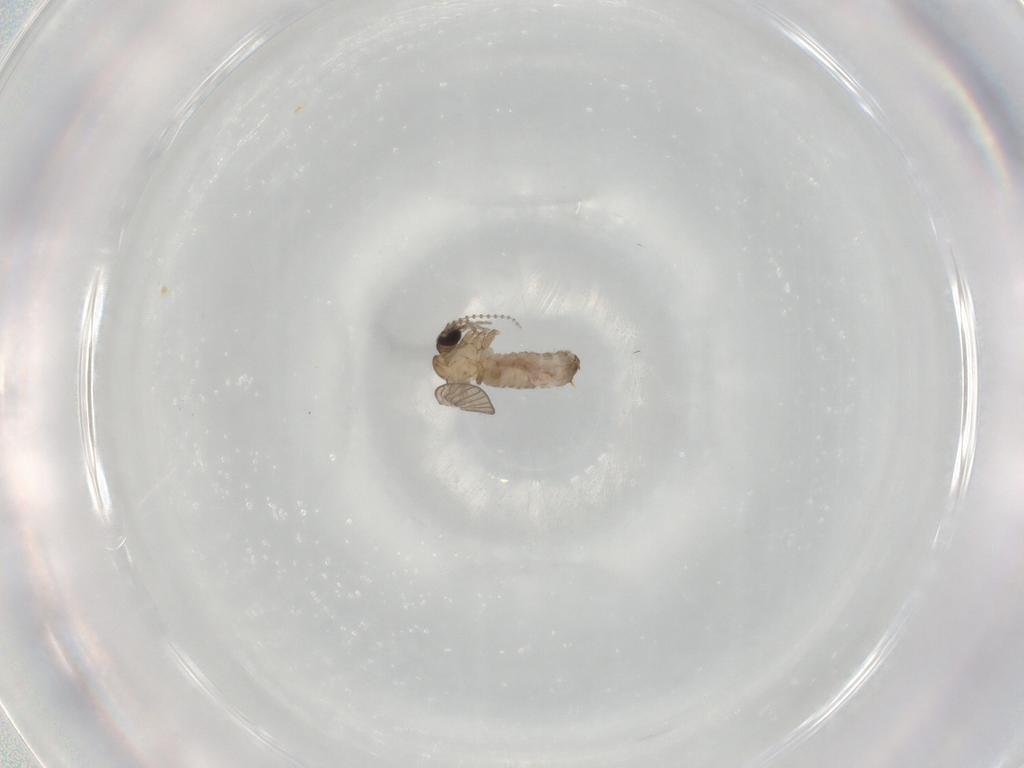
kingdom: Animalia
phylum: Arthropoda
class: Insecta
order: Diptera
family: Psychodidae
